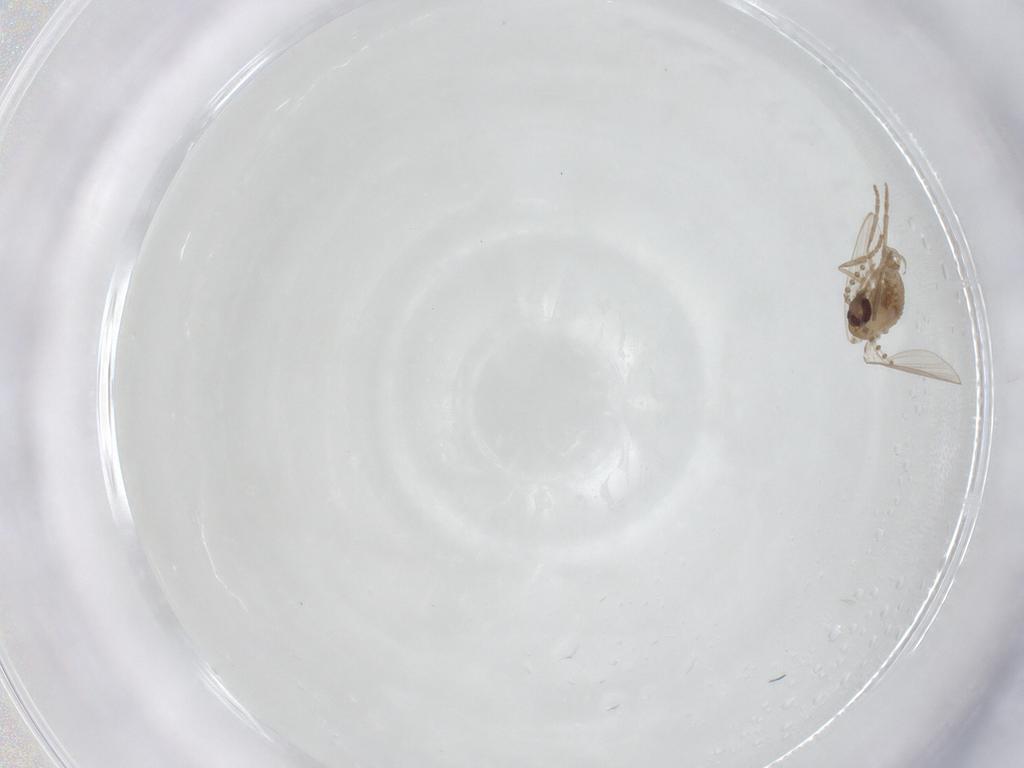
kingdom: Animalia
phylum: Arthropoda
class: Insecta
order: Diptera
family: Psychodidae
